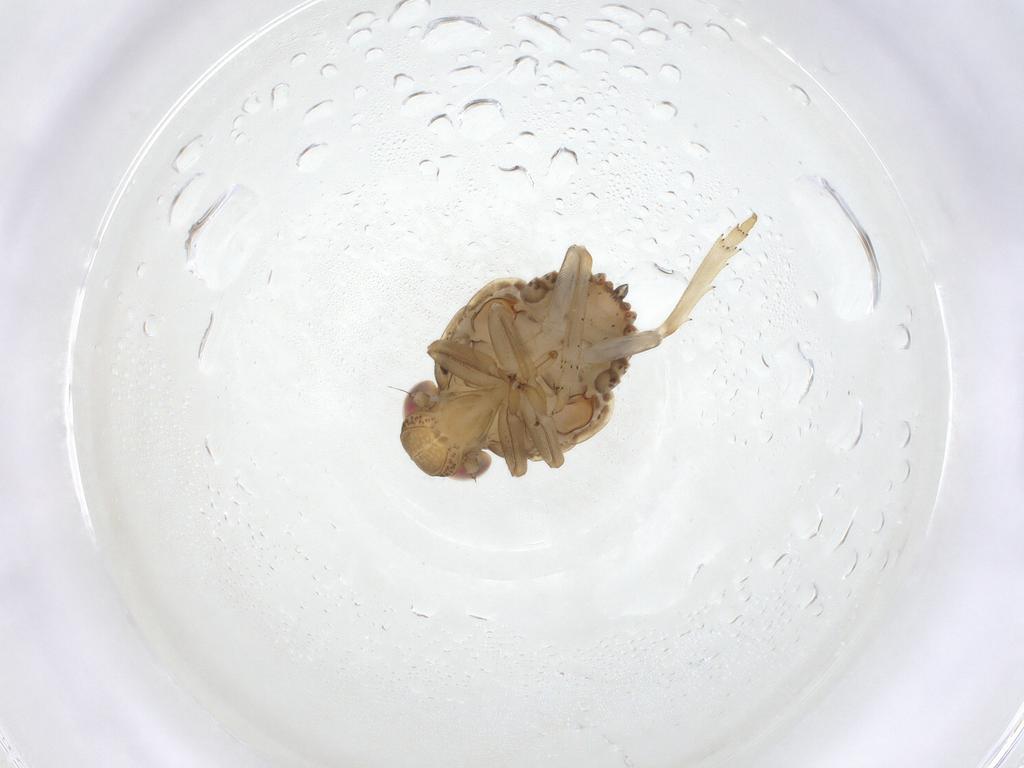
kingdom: Animalia
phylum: Arthropoda
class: Insecta
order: Hemiptera
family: Issidae
